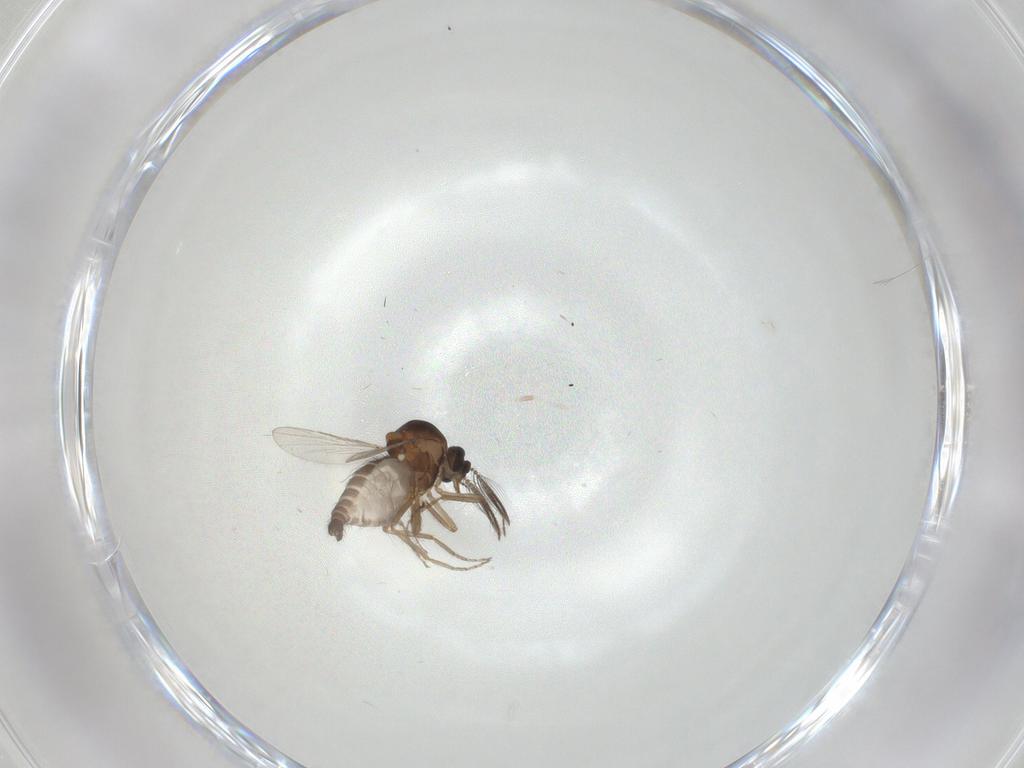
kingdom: Animalia
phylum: Arthropoda
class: Insecta
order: Diptera
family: Ceratopogonidae
